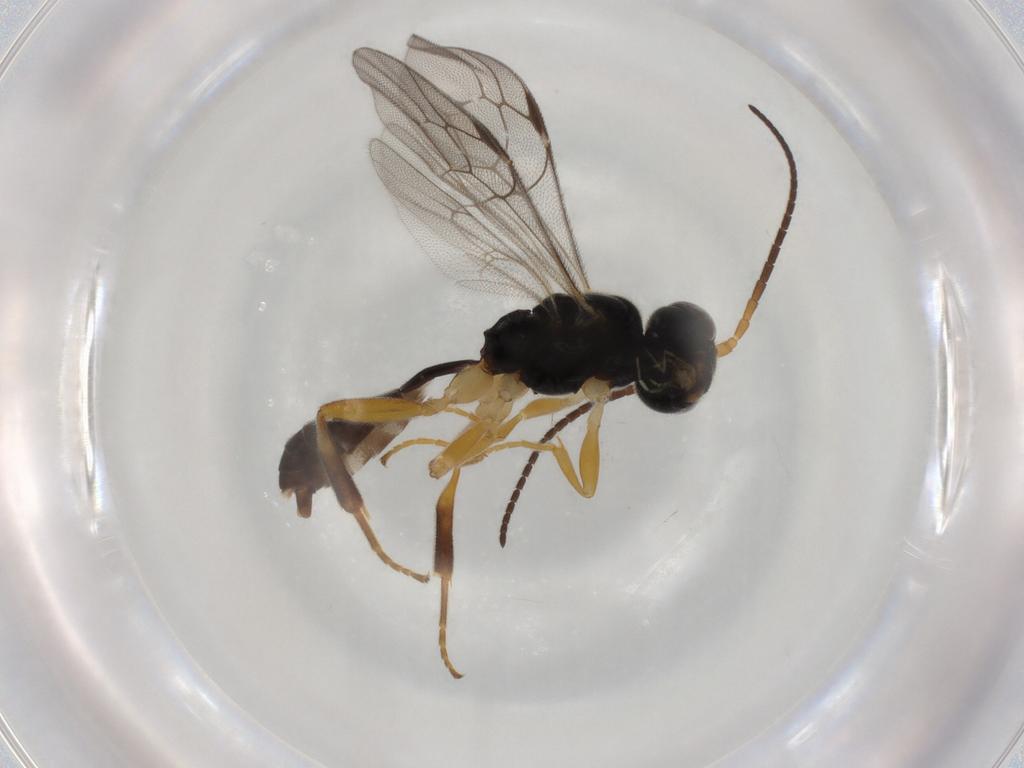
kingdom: Animalia
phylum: Arthropoda
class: Insecta
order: Hymenoptera
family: Ichneumonidae
